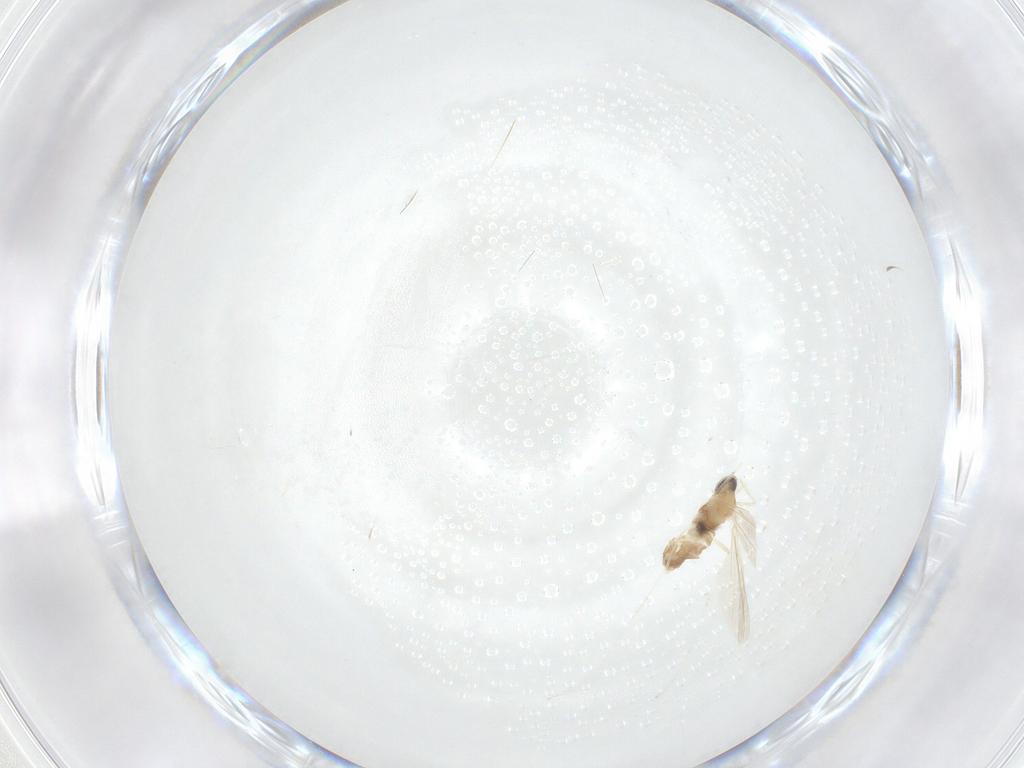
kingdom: Animalia
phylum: Arthropoda
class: Insecta
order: Diptera
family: Cecidomyiidae
